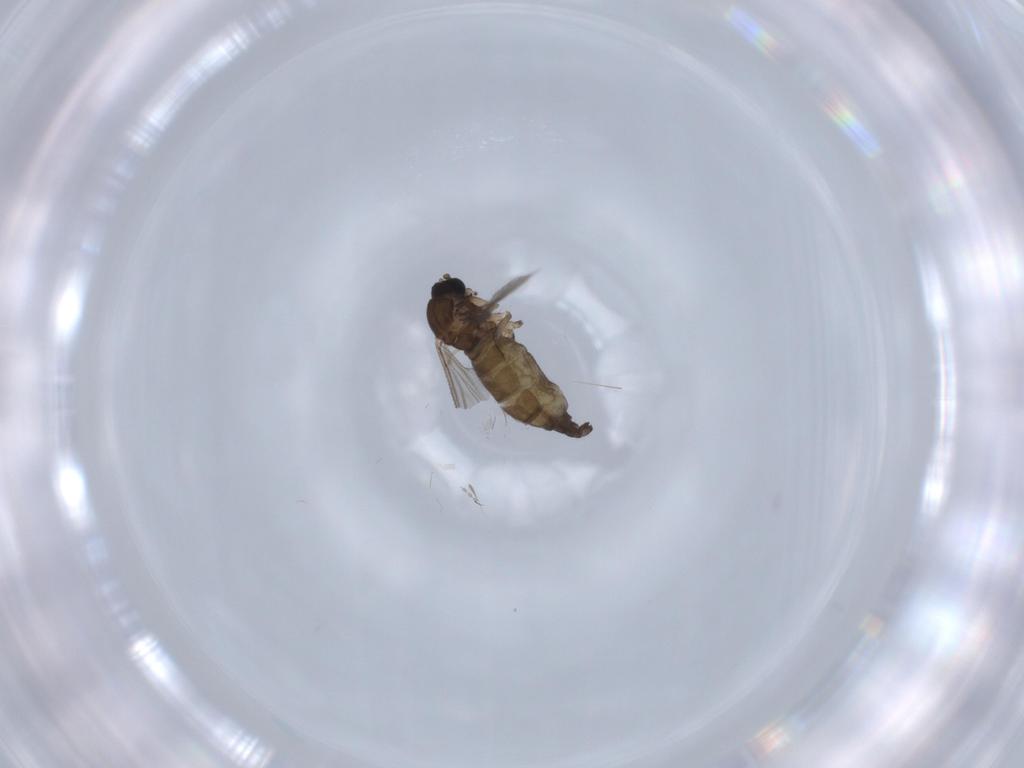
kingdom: Animalia
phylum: Arthropoda
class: Insecta
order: Diptera
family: Sciaridae
